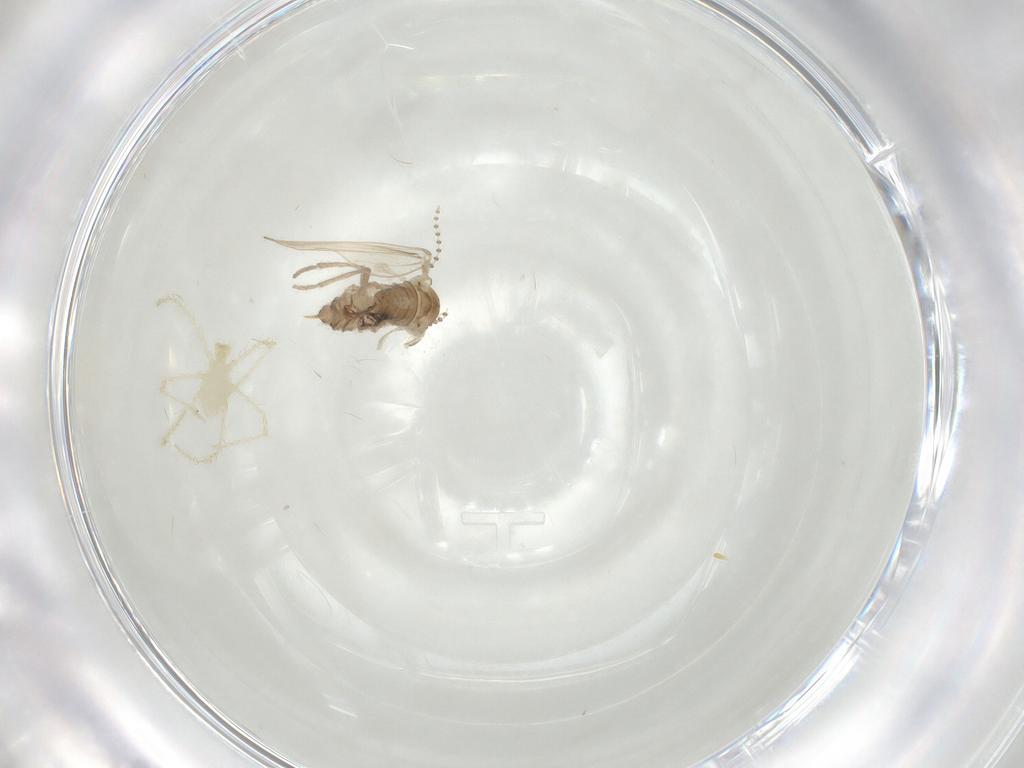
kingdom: Animalia
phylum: Arthropoda
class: Insecta
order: Diptera
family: Psychodidae
